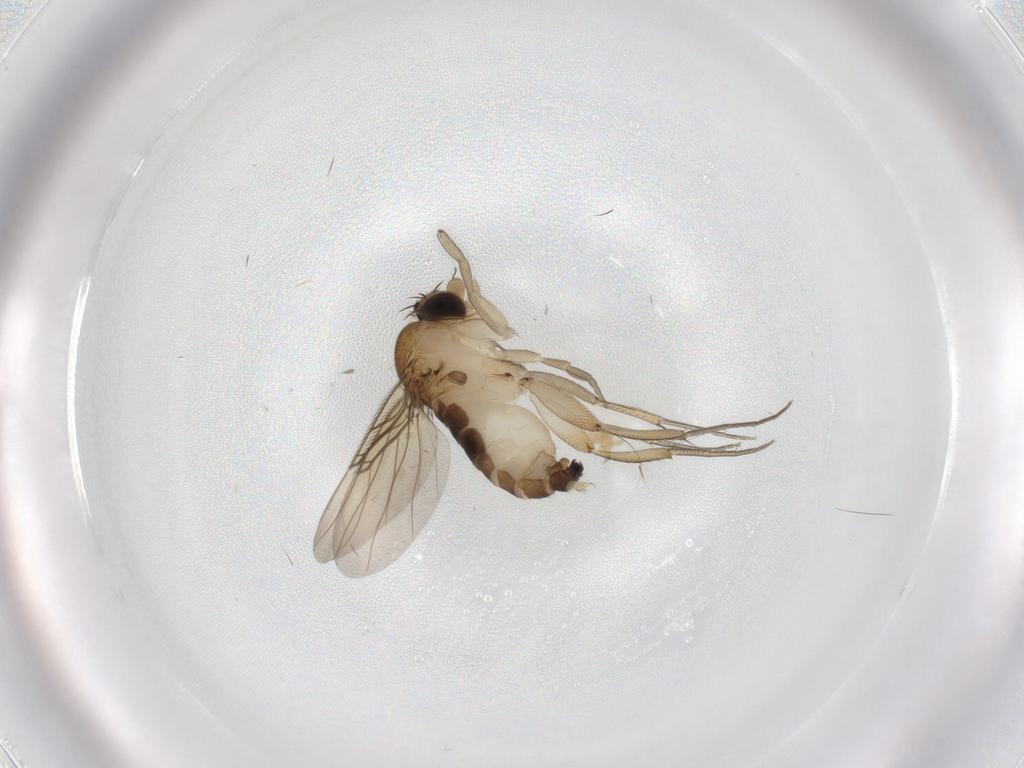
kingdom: Animalia
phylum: Arthropoda
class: Insecta
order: Diptera
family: Phoridae
